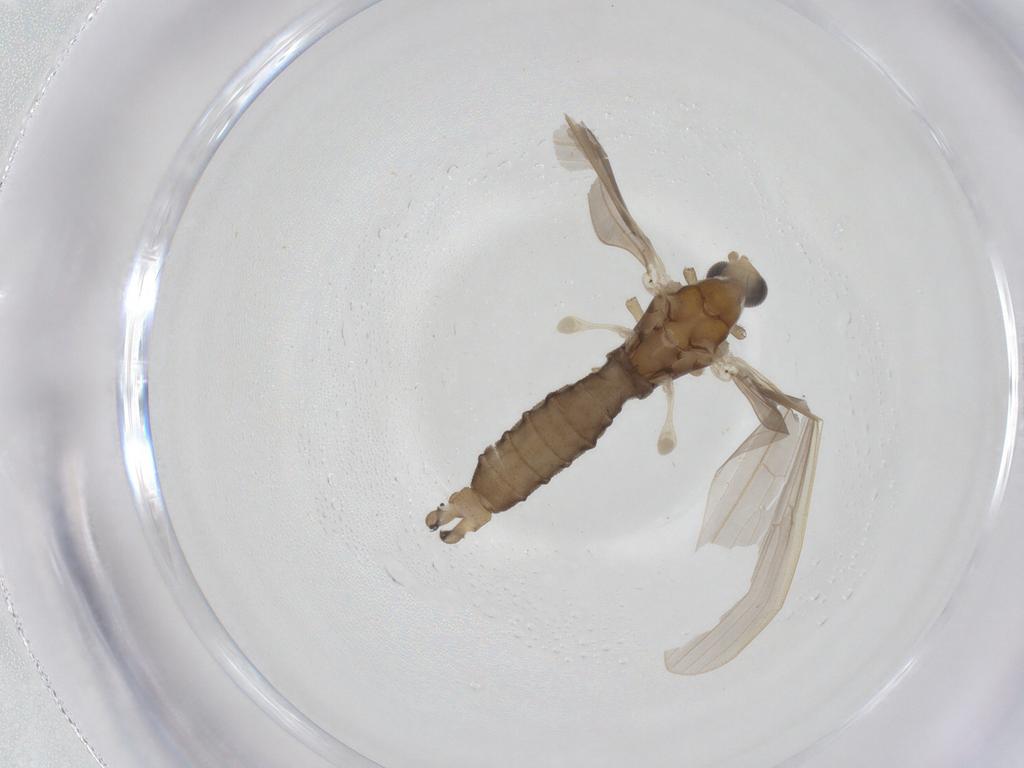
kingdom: Animalia
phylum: Arthropoda
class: Insecta
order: Diptera
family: Limoniidae
